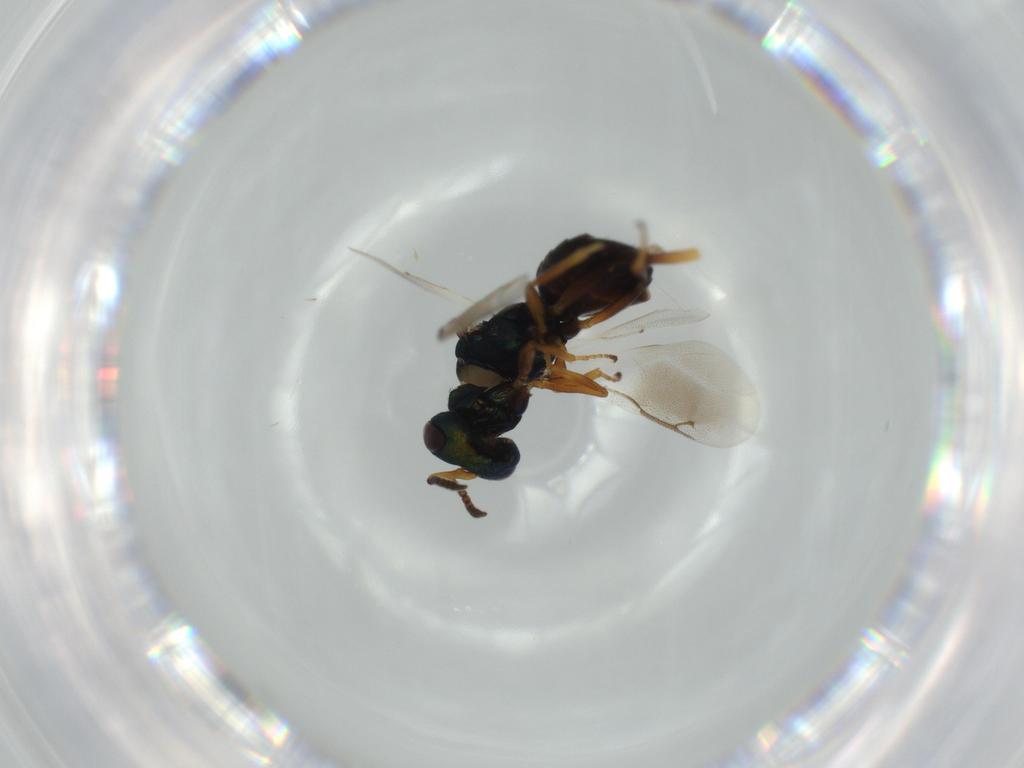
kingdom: Animalia
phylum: Arthropoda
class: Insecta
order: Hymenoptera
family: Pteromalidae
